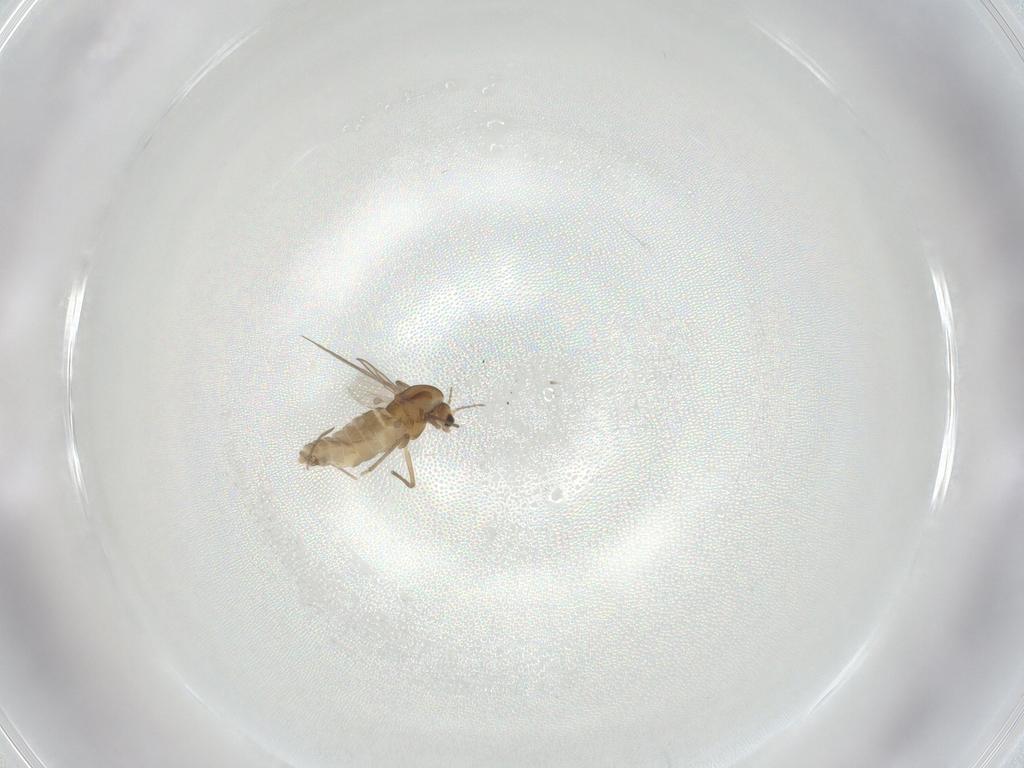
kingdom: Animalia
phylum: Arthropoda
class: Insecta
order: Diptera
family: Chironomidae
